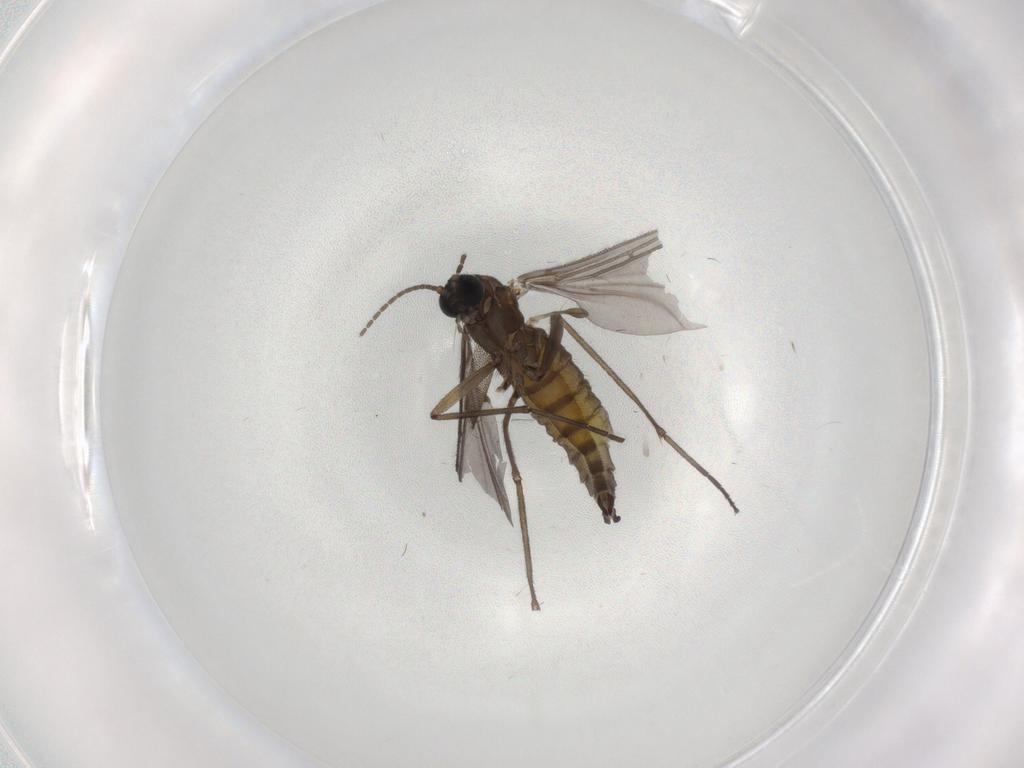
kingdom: Animalia
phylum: Arthropoda
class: Insecta
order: Diptera
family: Sciaridae
